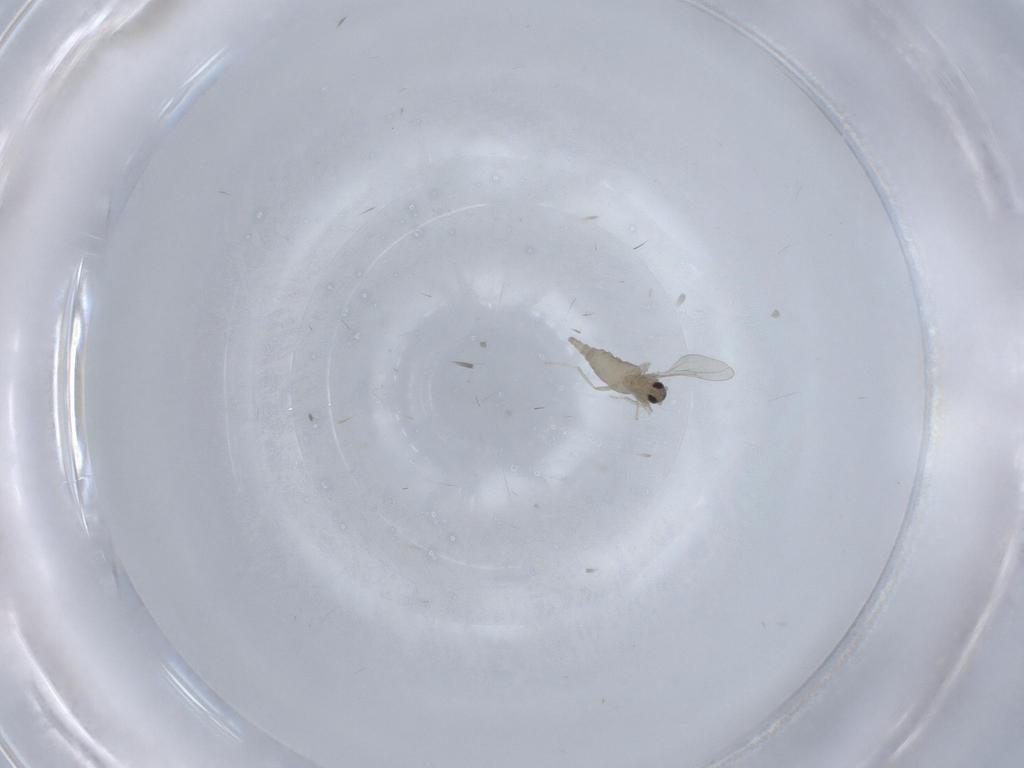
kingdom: Animalia
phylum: Arthropoda
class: Insecta
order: Diptera
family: Cecidomyiidae
